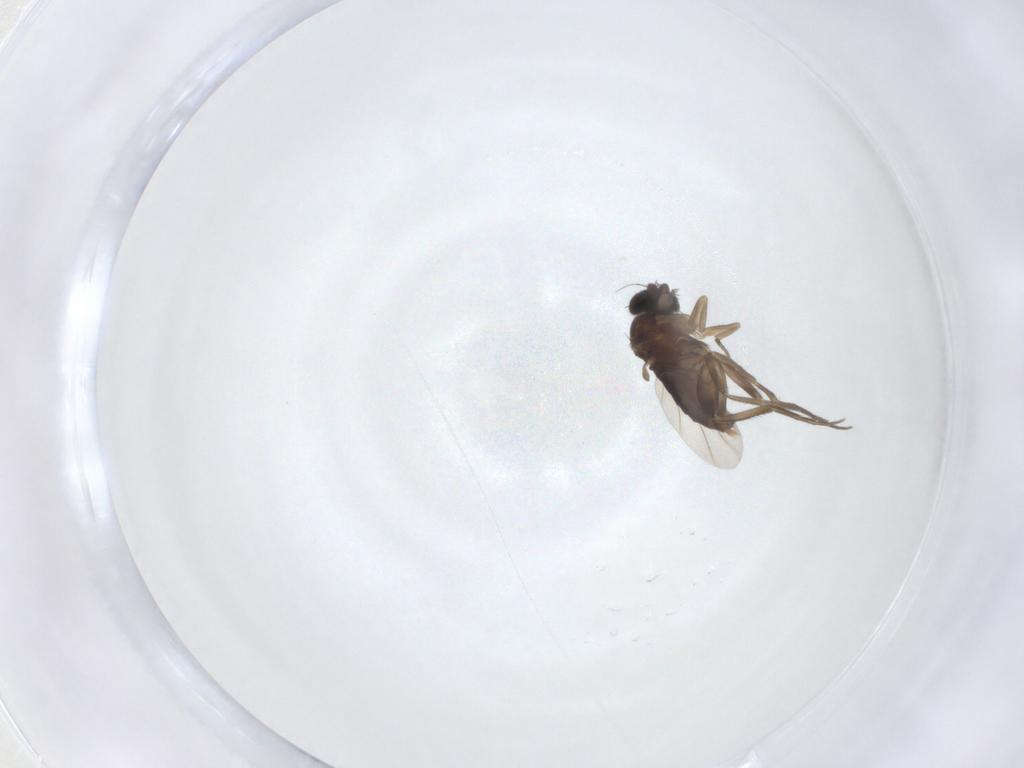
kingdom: Animalia
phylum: Arthropoda
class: Insecta
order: Diptera
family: Phoridae
